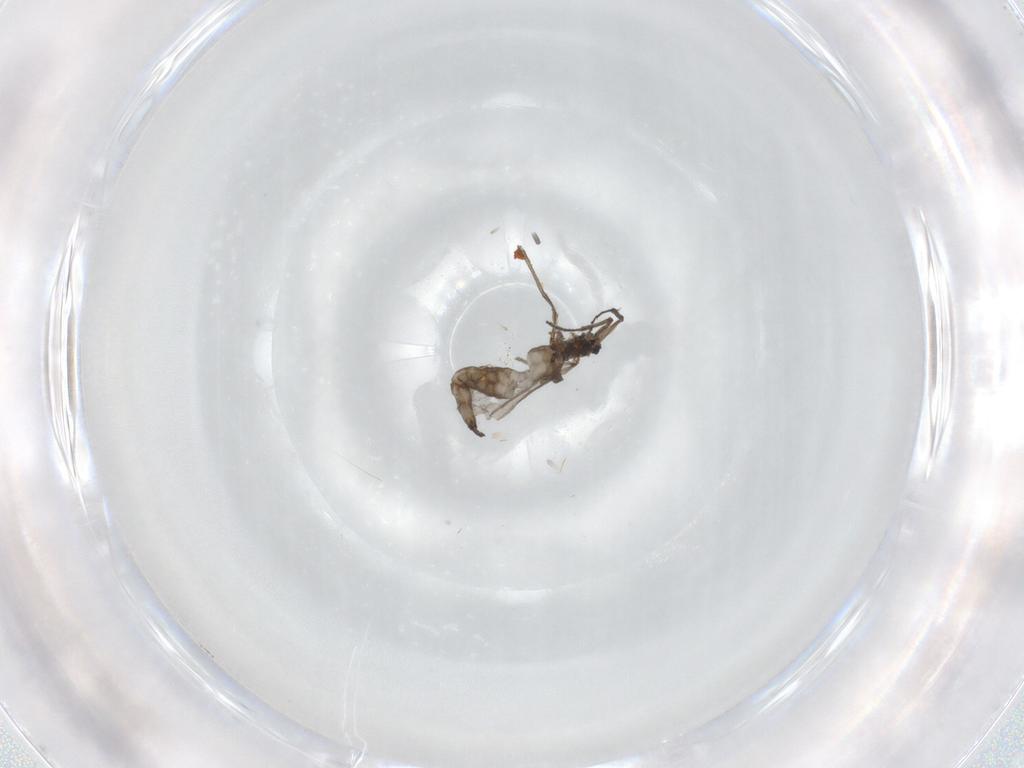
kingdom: Animalia
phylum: Arthropoda
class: Insecta
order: Diptera
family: Sciaridae
